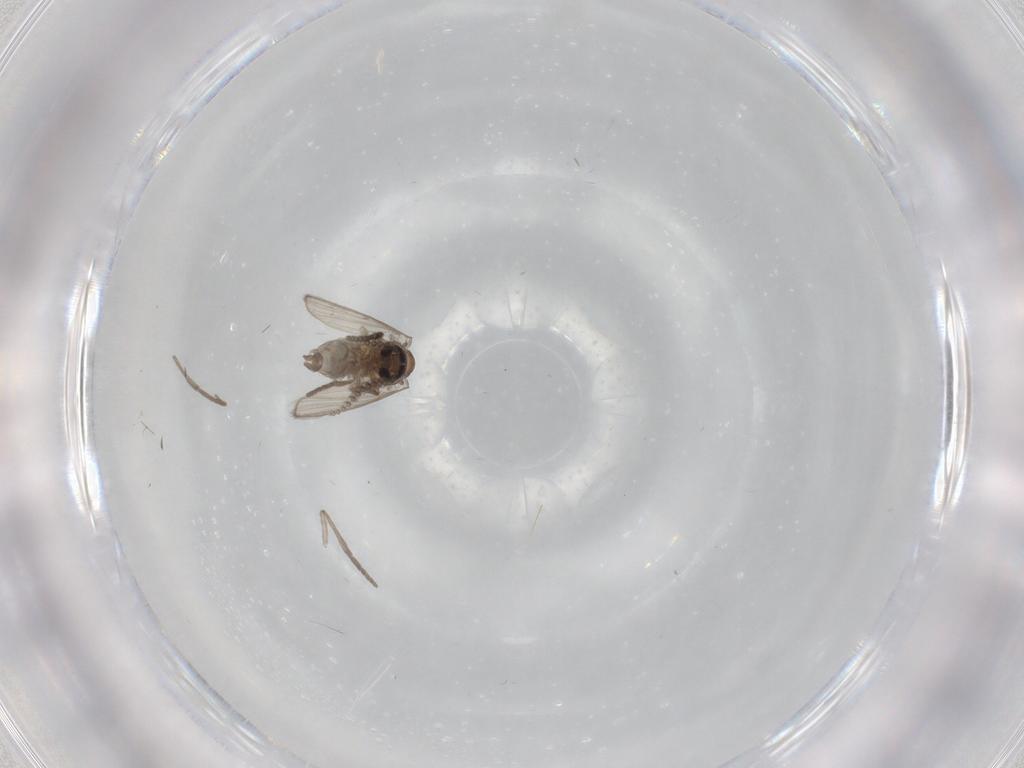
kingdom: Animalia
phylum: Arthropoda
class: Insecta
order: Diptera
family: Psychodidae
